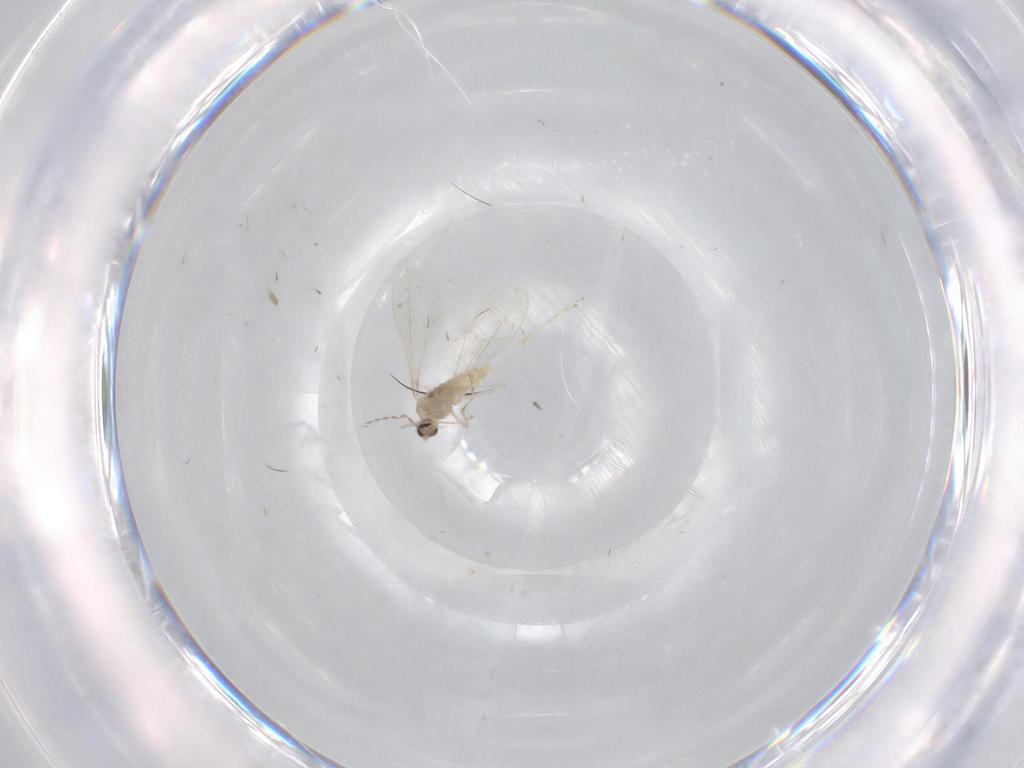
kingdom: Animalia
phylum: Arthropoda
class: Insecta
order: Diptera
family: Cecidomyiidae
